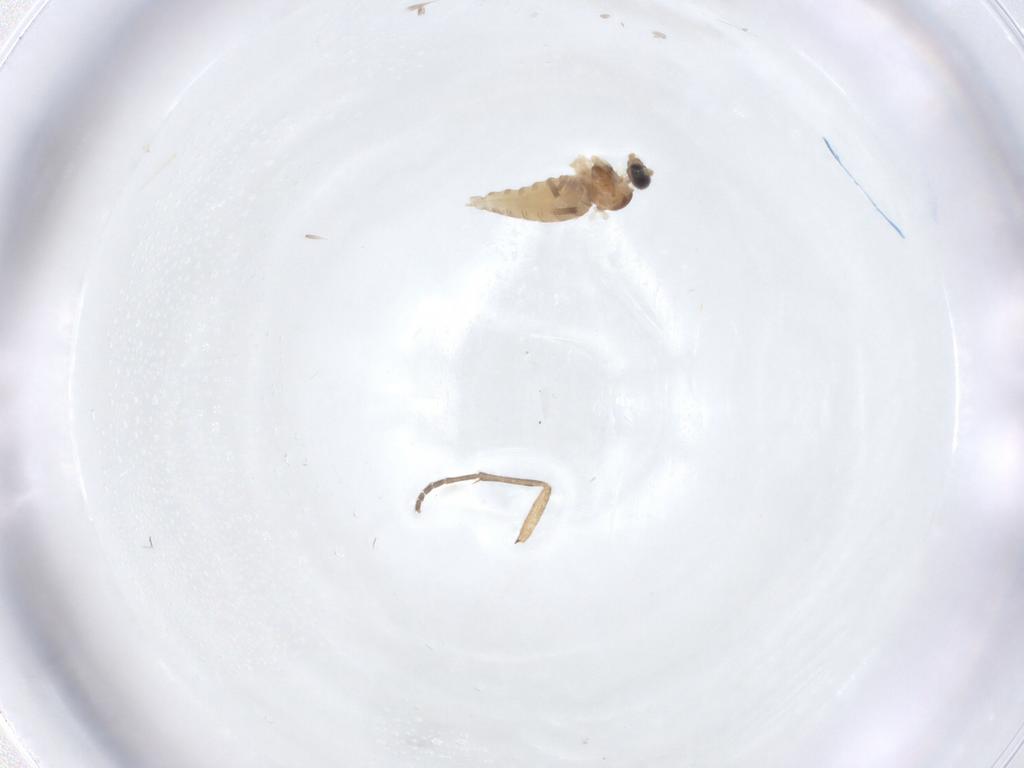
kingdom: Animalia
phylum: Arthropoda
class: Insecta
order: Diptera
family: Cecidomyiidae
